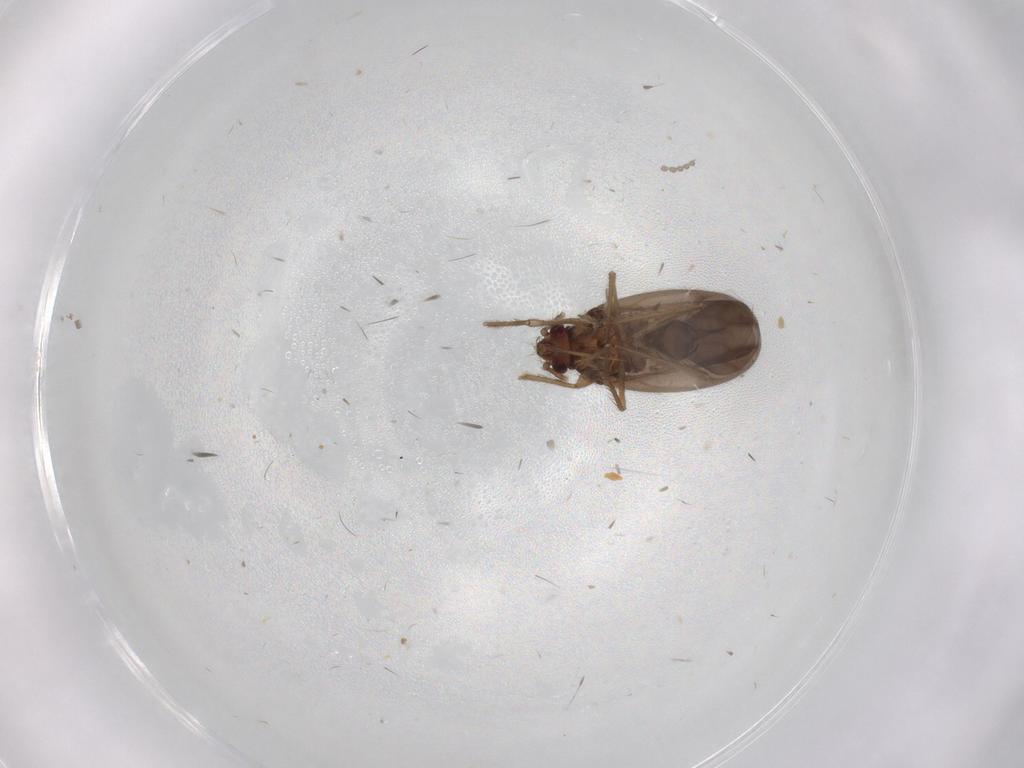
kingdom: Animalia
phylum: Arthropoda
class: Insecta
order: Hemiptera
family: Ceratocombidae
